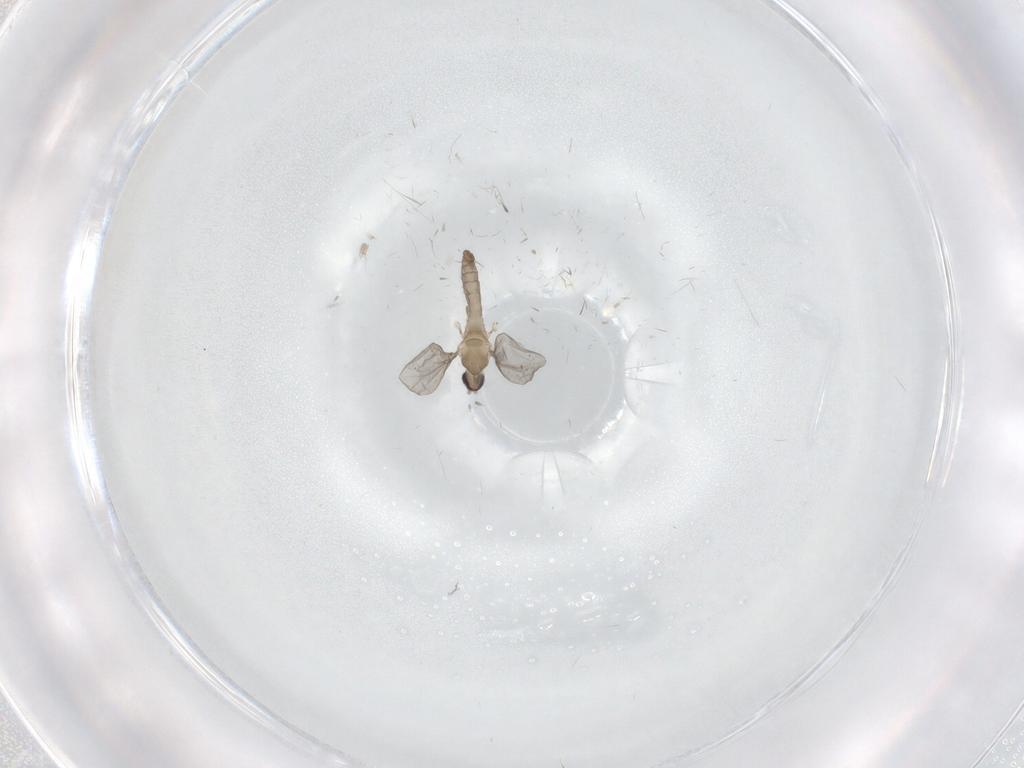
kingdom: Animalia
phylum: Arthropoda
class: Insecta
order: Diptera
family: Ceratopogonidae
